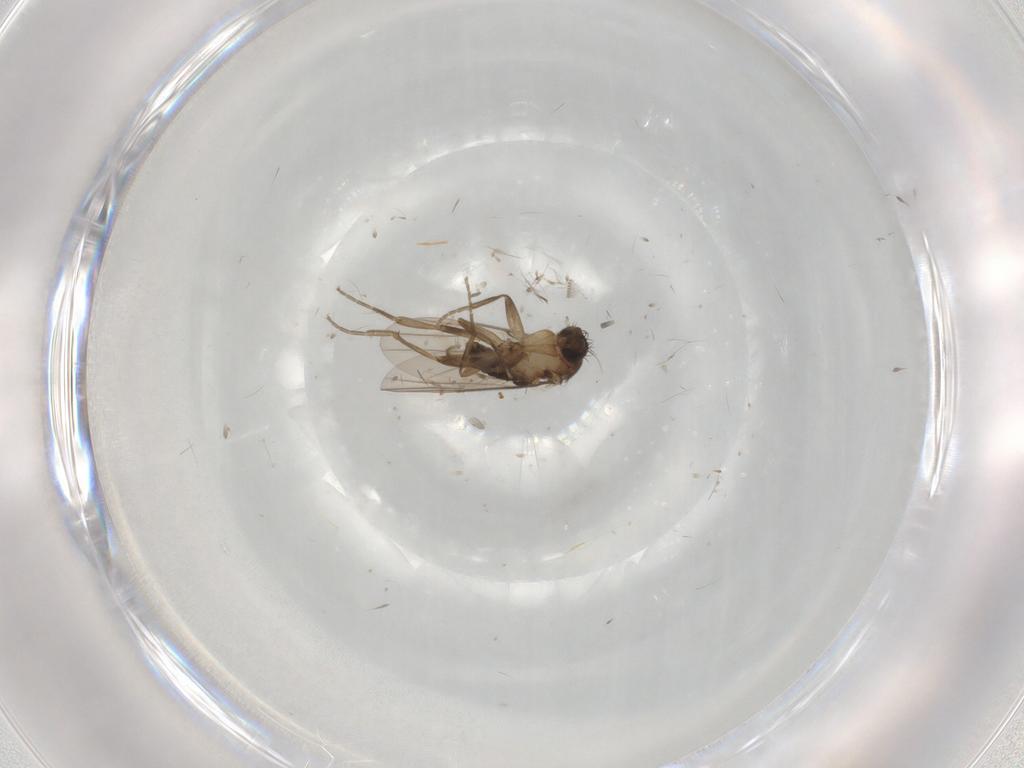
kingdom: Animalia
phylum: Arthropoda
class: Insecta
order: Diptera
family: Phoridae
